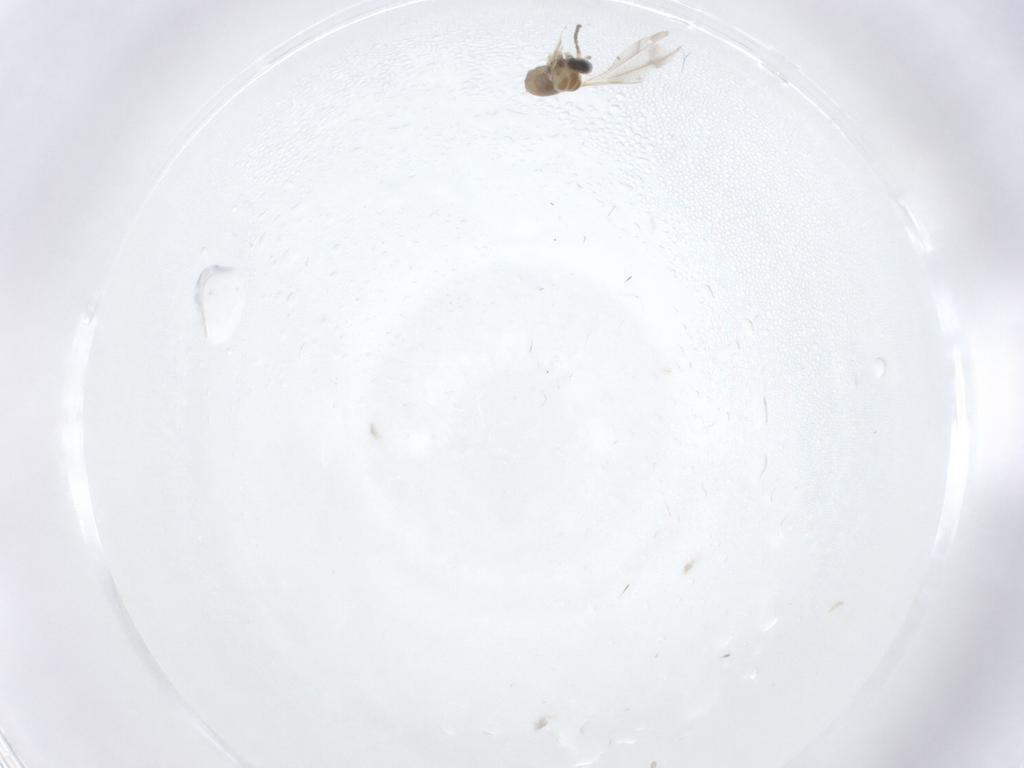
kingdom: Animalia
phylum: Arthropoda
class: Insecta
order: Diptera
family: Cecidomyiidae
